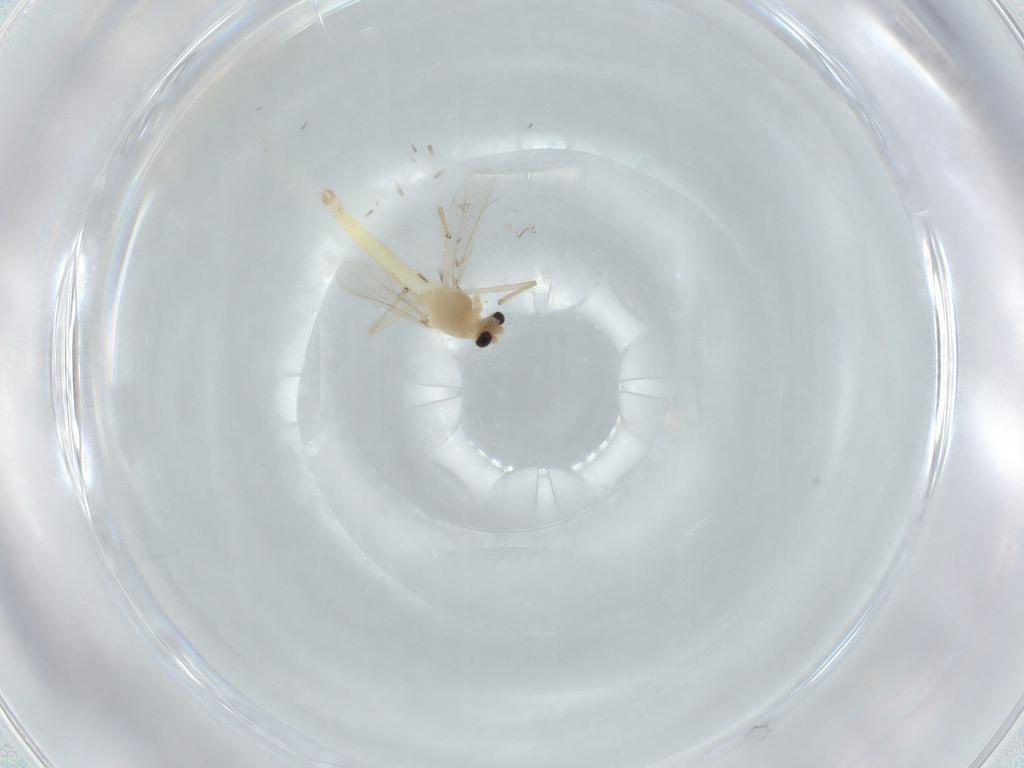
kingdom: Animalia
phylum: Arthropoda
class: Insecta
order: Diptera
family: Chironomidae
